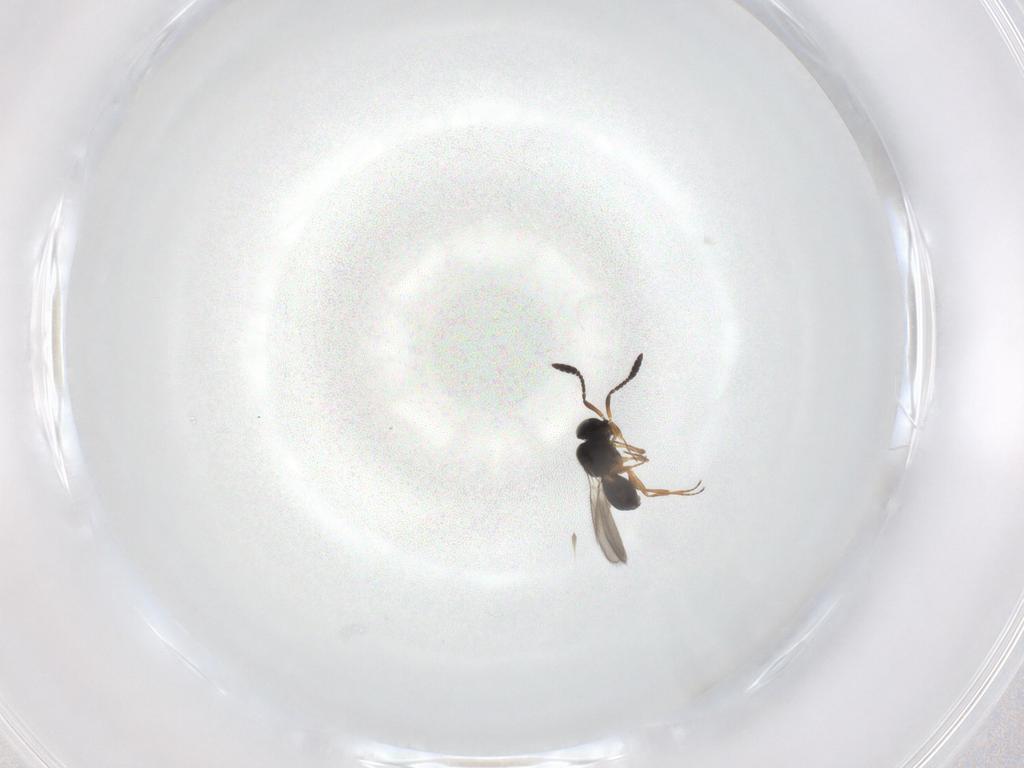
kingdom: Animalia
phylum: Arthropoda
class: Insecta
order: Hymenoptera
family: Scelionidae
